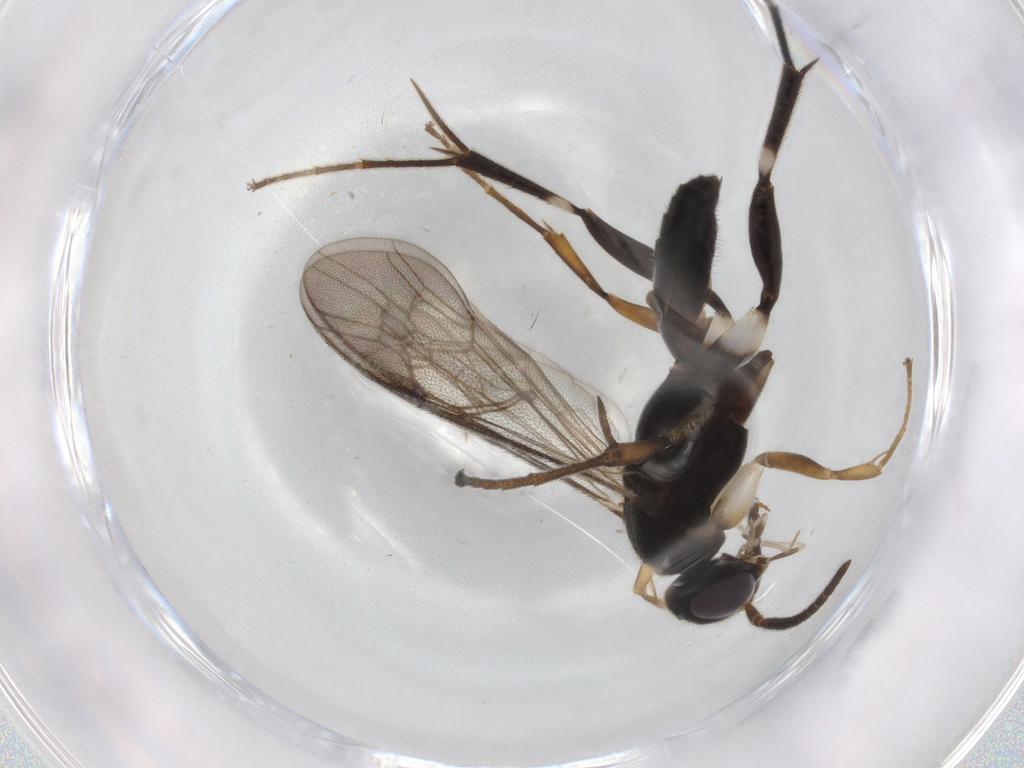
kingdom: Animalia
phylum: Arthropoda
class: Insecta
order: Hymenoptera
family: Pompilidae
